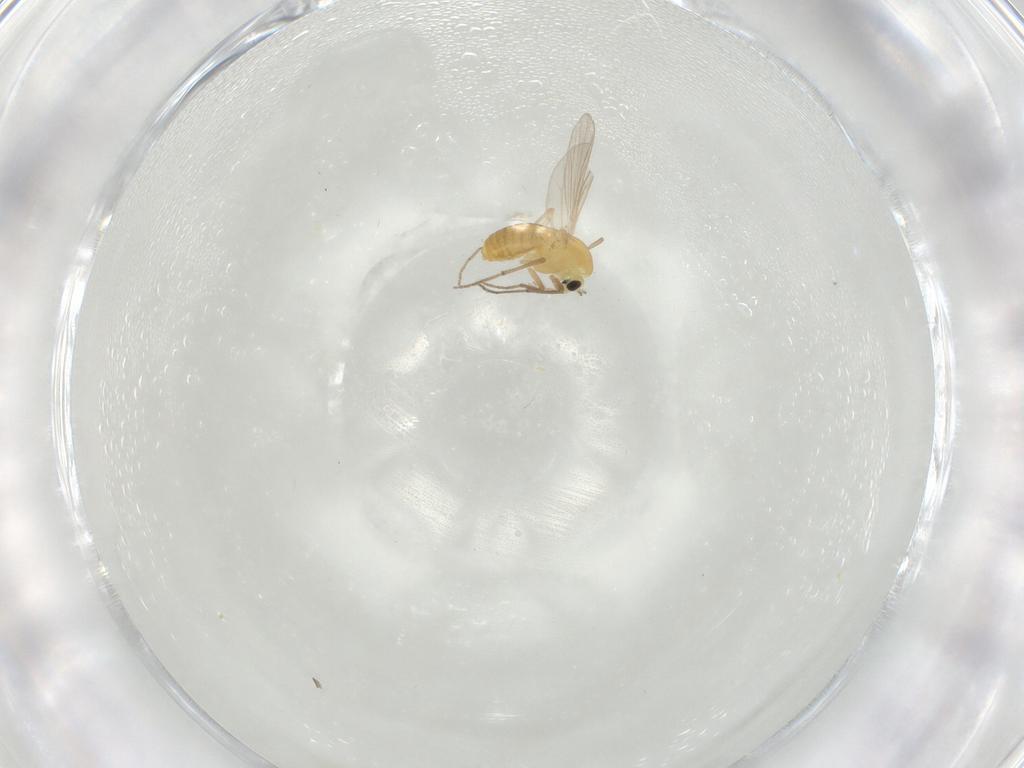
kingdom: Animalia
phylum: Arthropoda
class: Insecta
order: Diptera
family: Chironomidae
